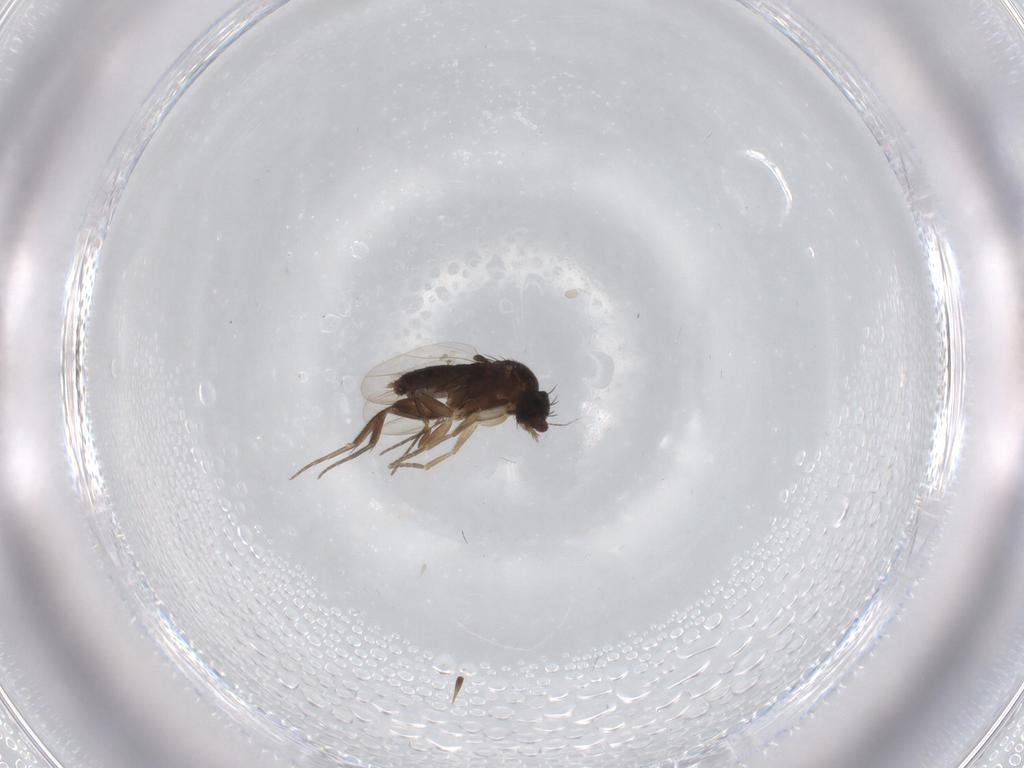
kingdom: Animalia
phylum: Arthropoda
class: Insecta
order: Diptera
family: Phoridae
